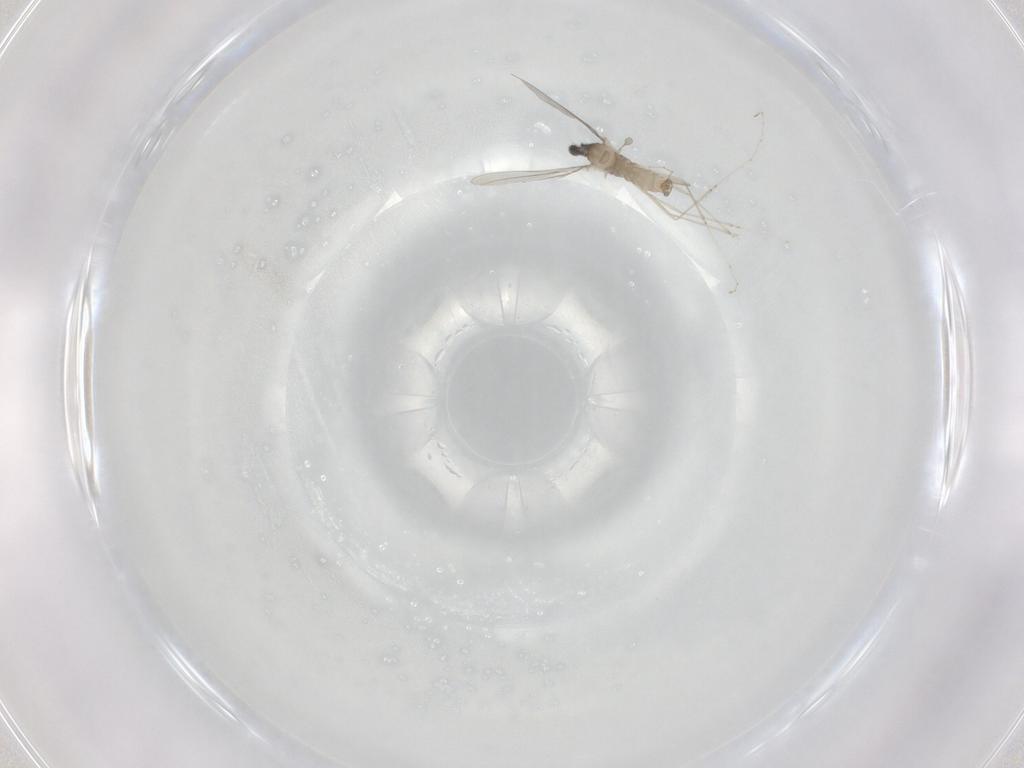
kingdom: Animalia
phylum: Arthropoda
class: Insecta
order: Diptera
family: Cecidomyiidae
